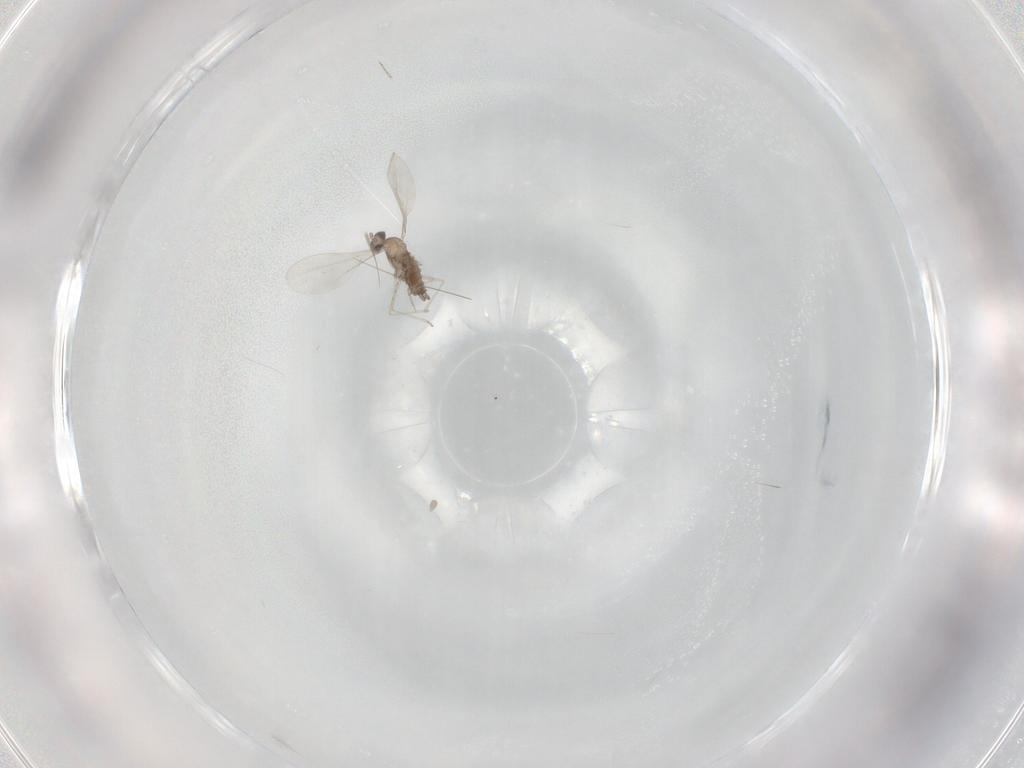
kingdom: Animalia
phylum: Arthropoda
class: Insecta
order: Diptera
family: Cecidomyiidae
